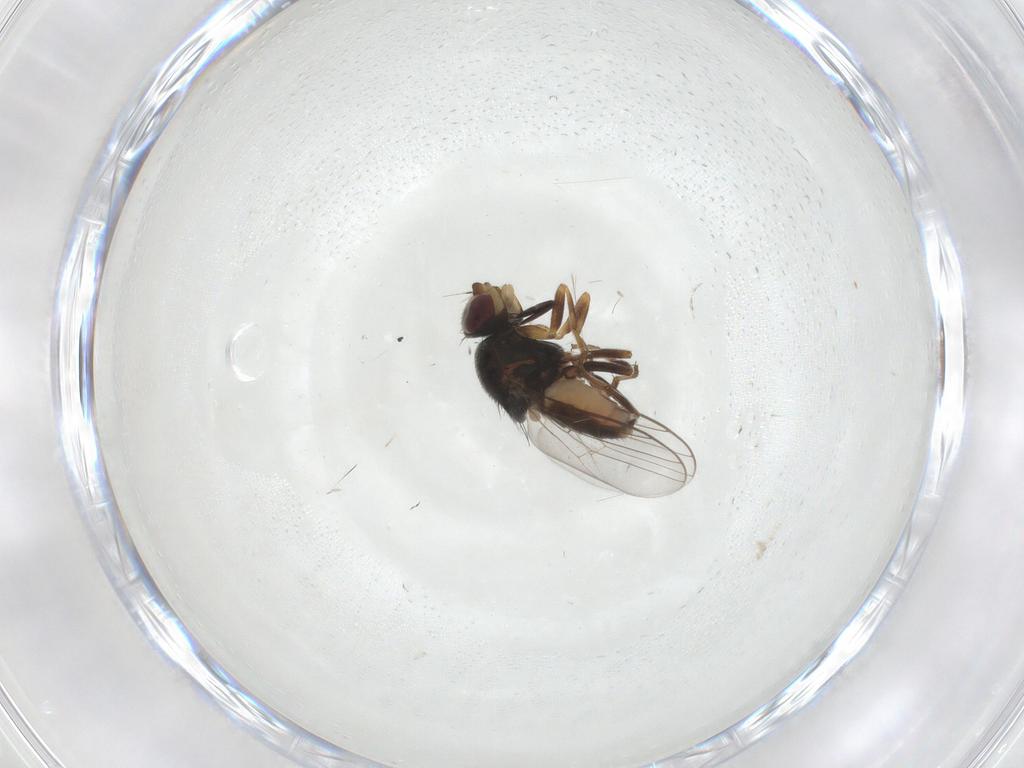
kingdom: Animalia
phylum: Arthropoda
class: Insecta
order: Diptera
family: Chloropidae
